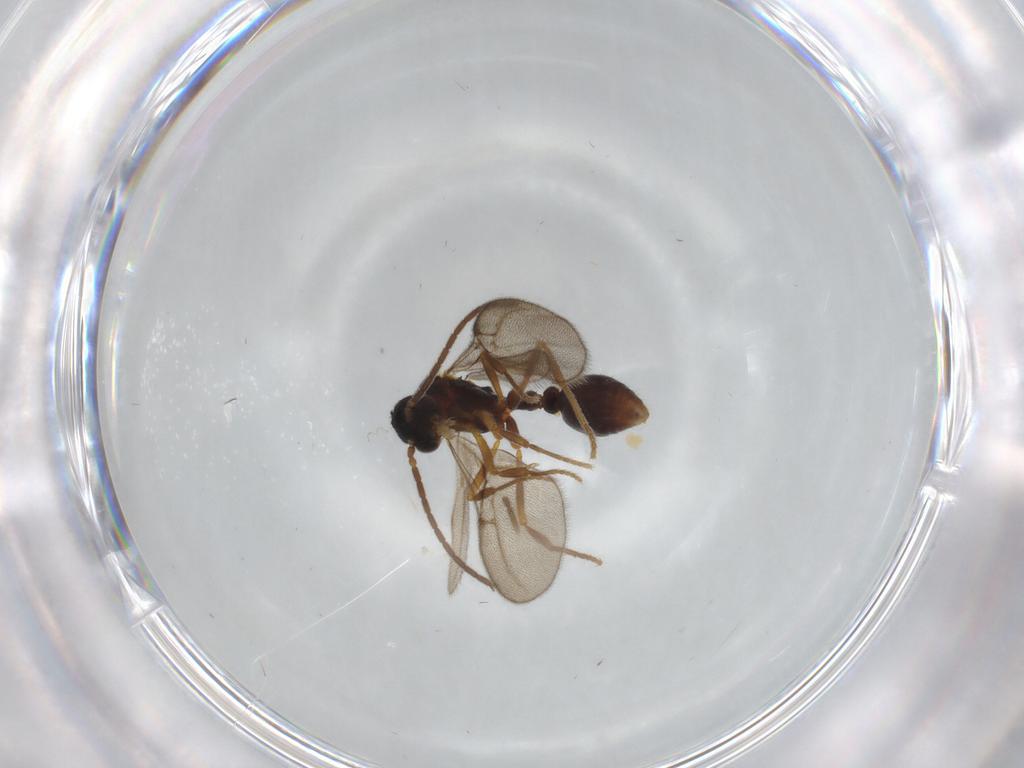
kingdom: Animalia
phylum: Arthropoda
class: Insecta
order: Hymenoptera
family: Formicidae
